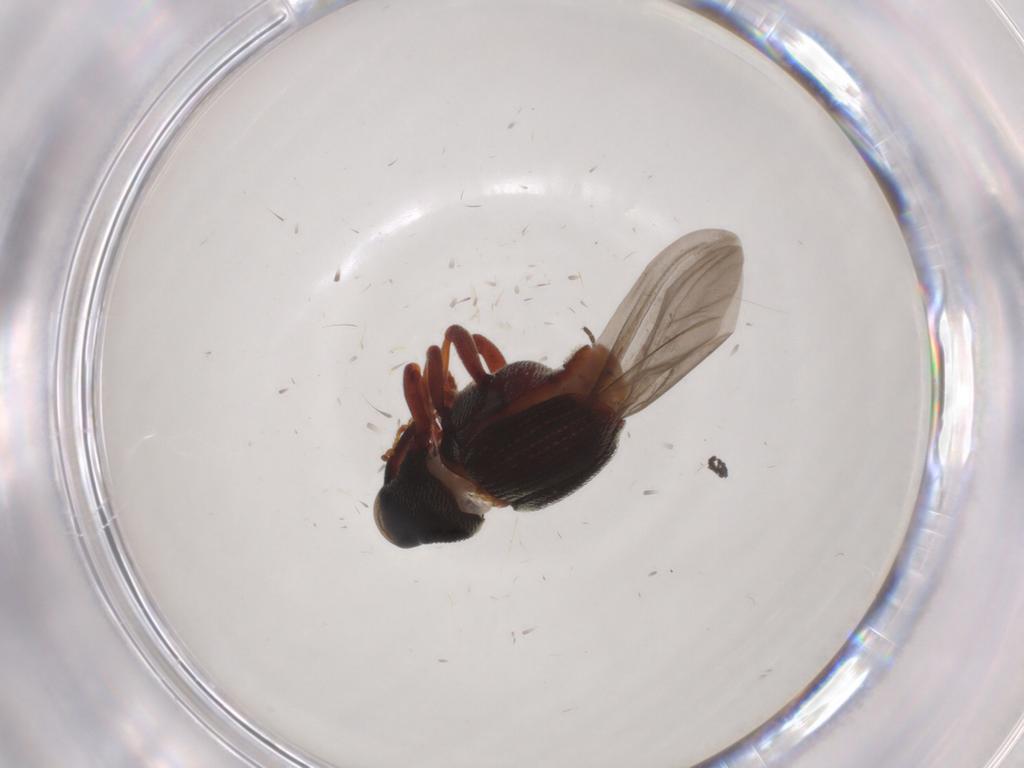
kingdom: Animalia
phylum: Arthropoda
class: Insecta
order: Coleoptera
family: Curculionidae
